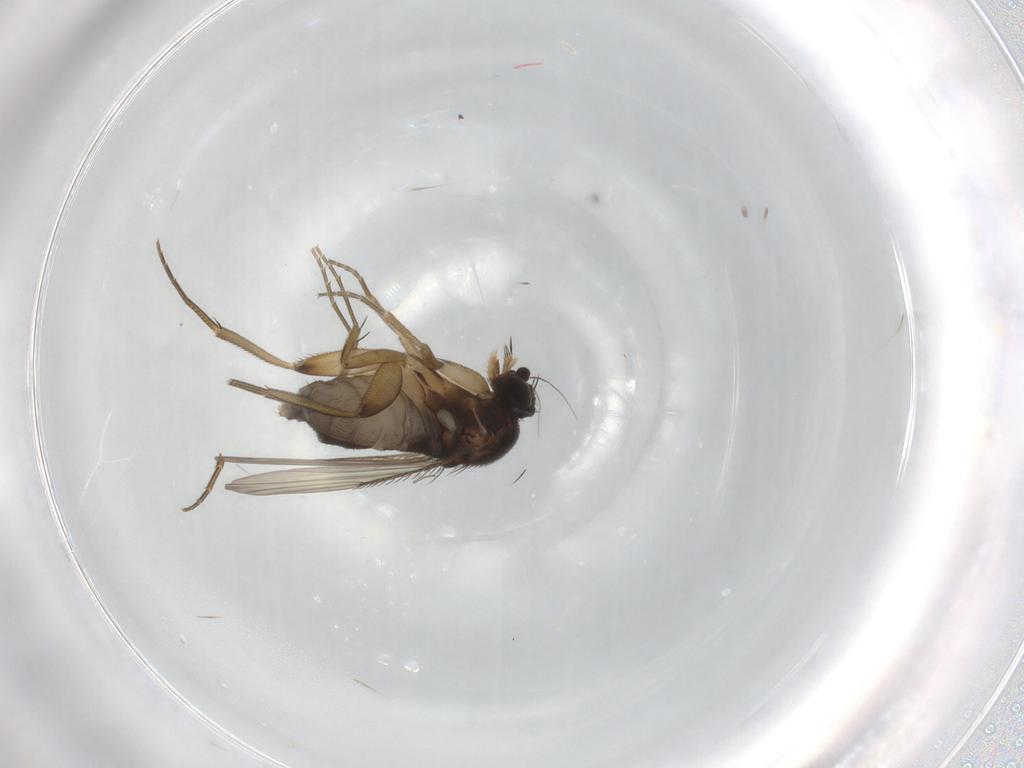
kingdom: Animalia
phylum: Arthropoda
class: Insecta
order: Diptera
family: Phoridae
